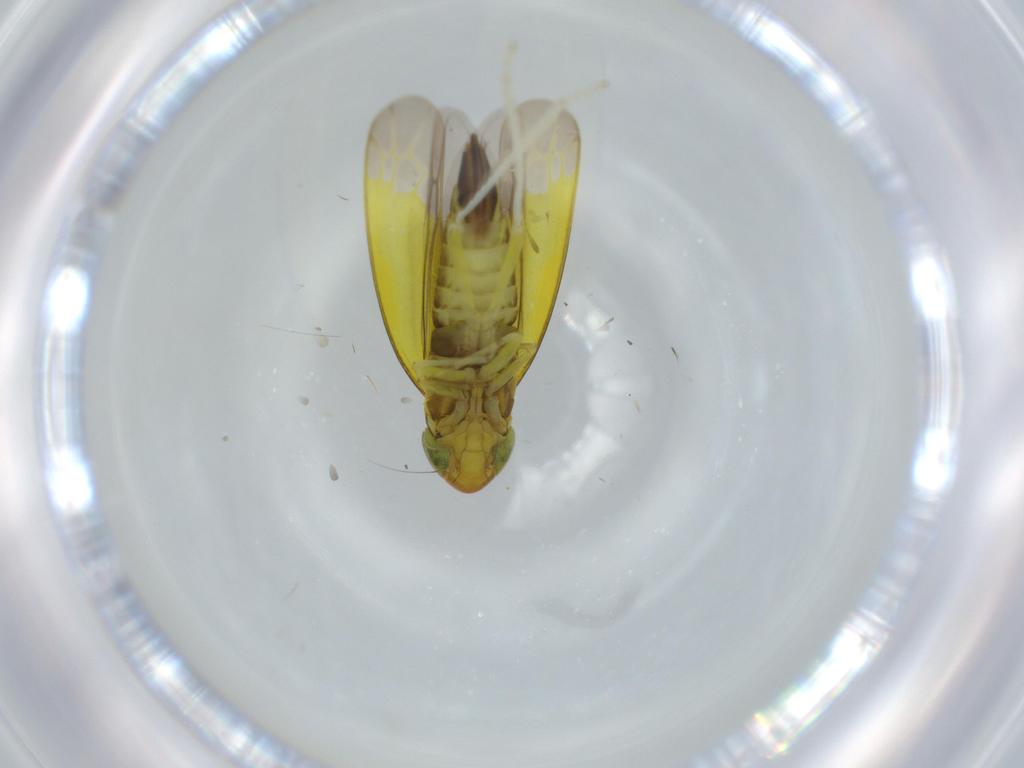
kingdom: Animalia
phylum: Arthropoda
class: Insecta
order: Hemiptera
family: Cicadellidae
